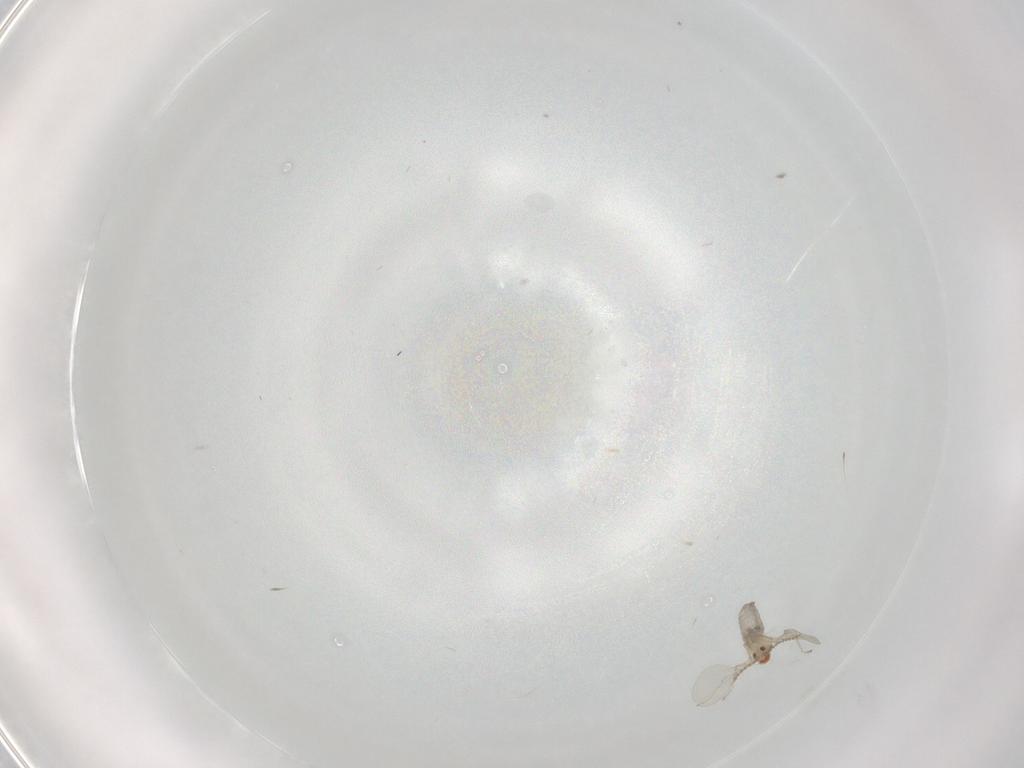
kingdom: Animalia
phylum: Arthropoda
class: Insecta
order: Diptera
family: Cecidomyiidae
